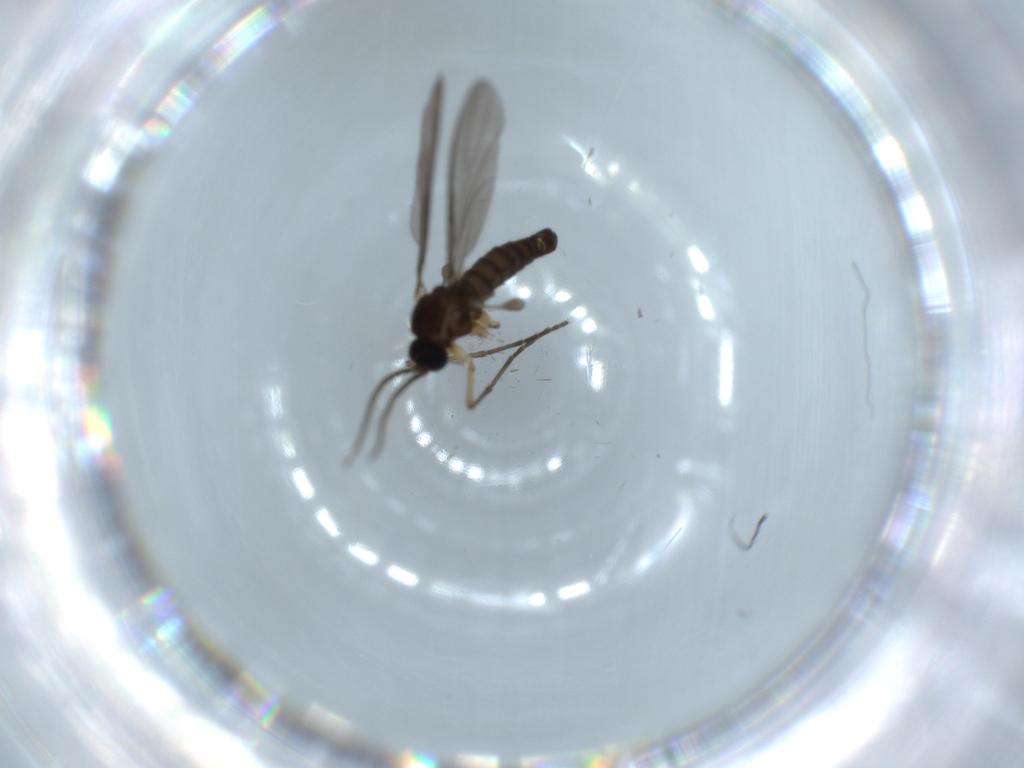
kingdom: Animalia
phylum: Arthropoda
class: Insecta
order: Diptera
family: Sciaridae
